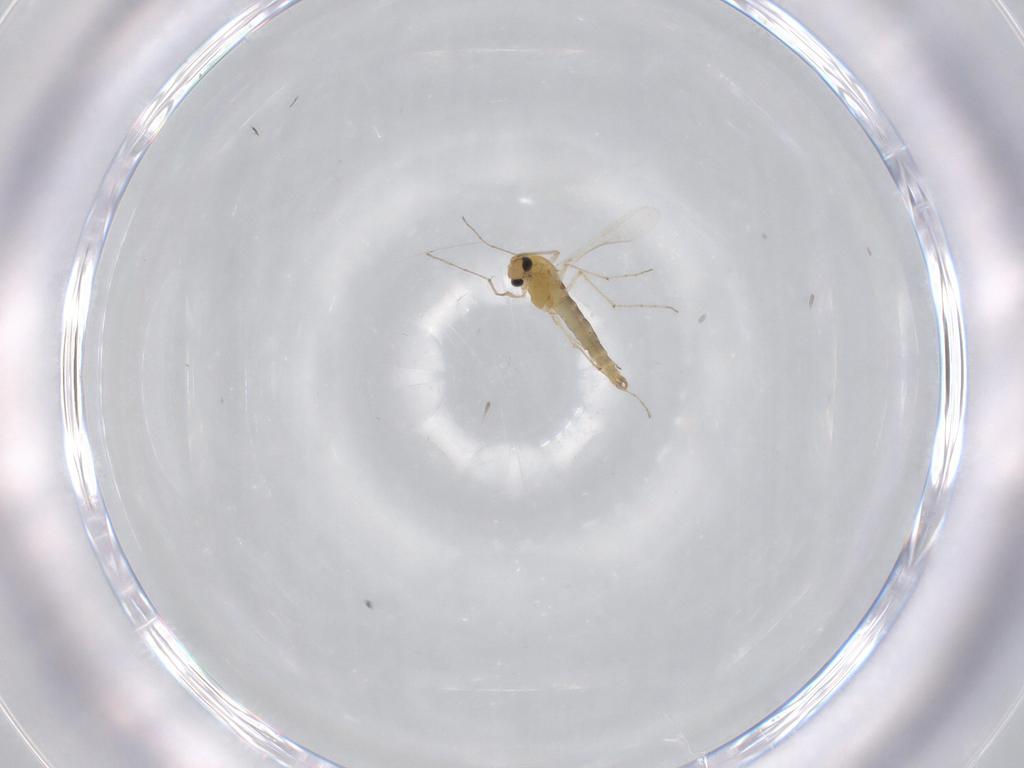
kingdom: Animalia
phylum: Arthropoda
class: Insecta
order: Diptera
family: Chironomidae
